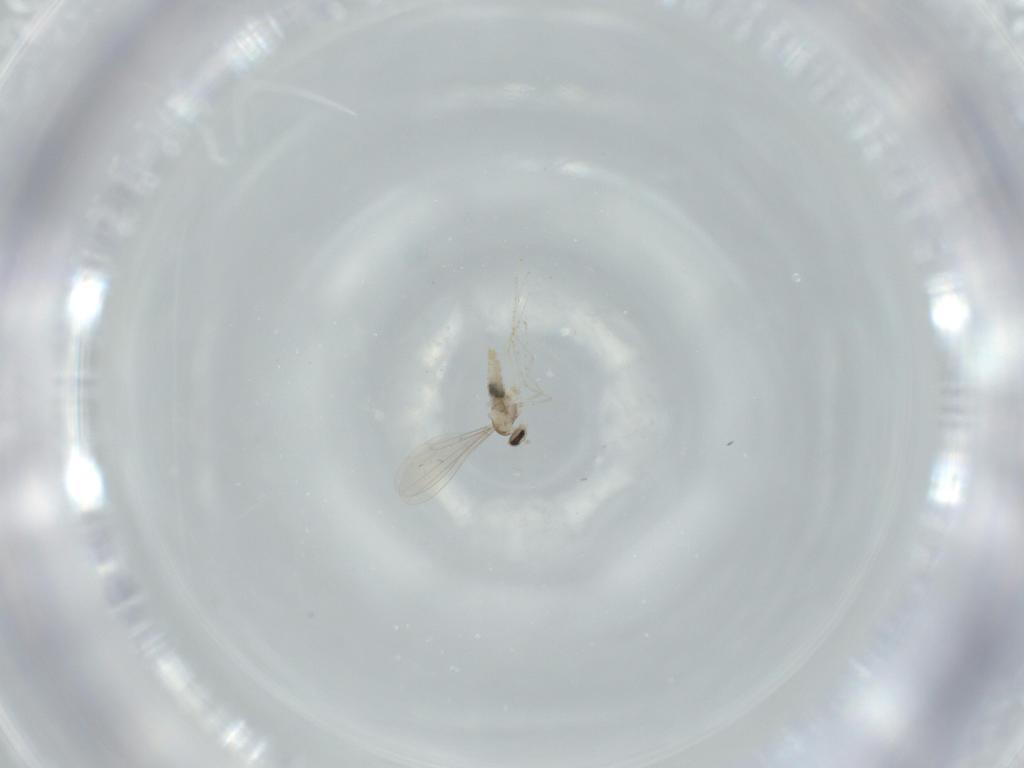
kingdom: Animalia
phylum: Arthropoda
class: Insecta
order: Diptera
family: Cecidomyiidae
